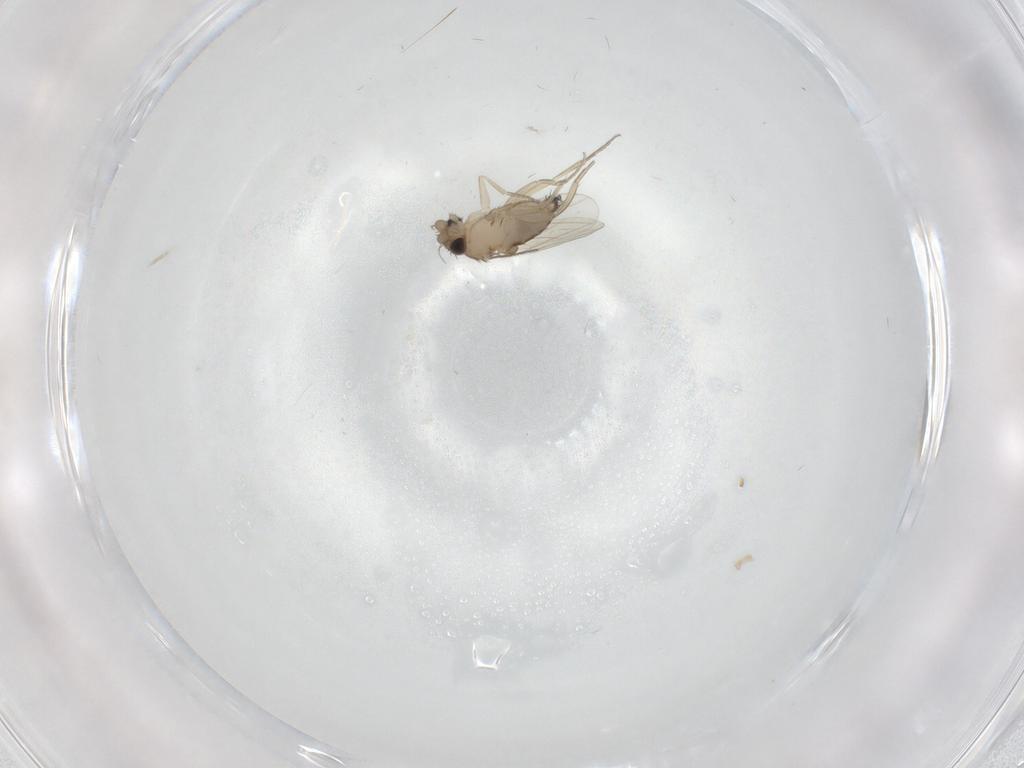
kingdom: Animalia
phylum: Arthropoda
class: Insecta
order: Diptera
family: Phoridae
